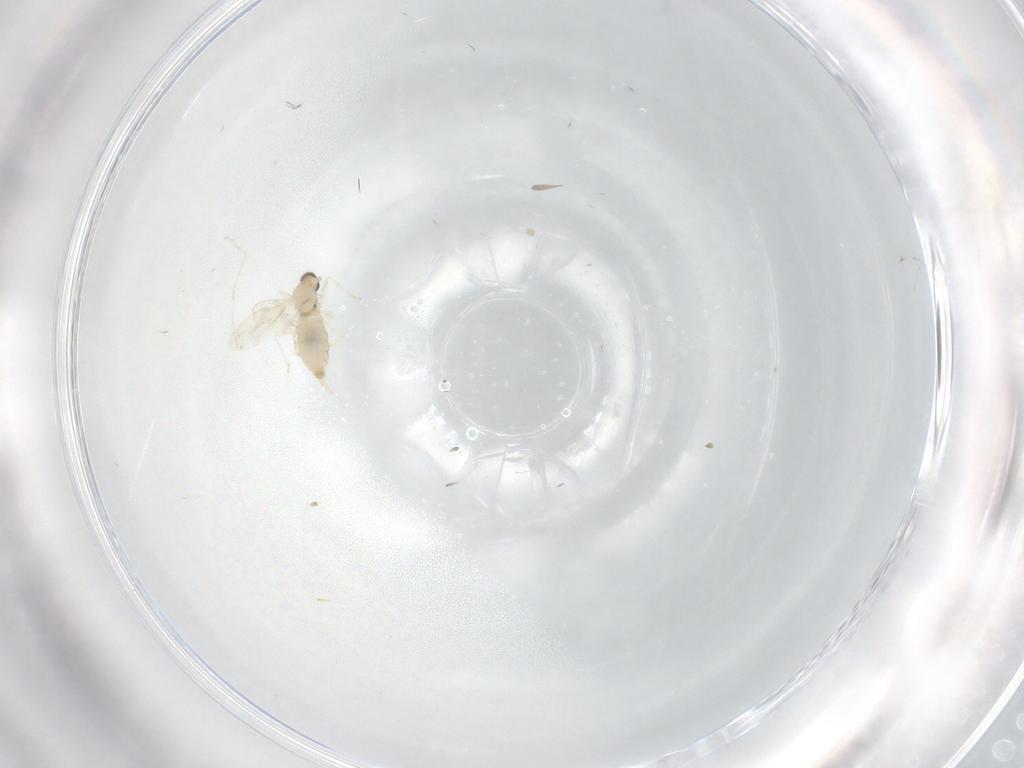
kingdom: Animalia
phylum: Arthropoda
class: Insecta
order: Diptera
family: Cecidomyiidae
